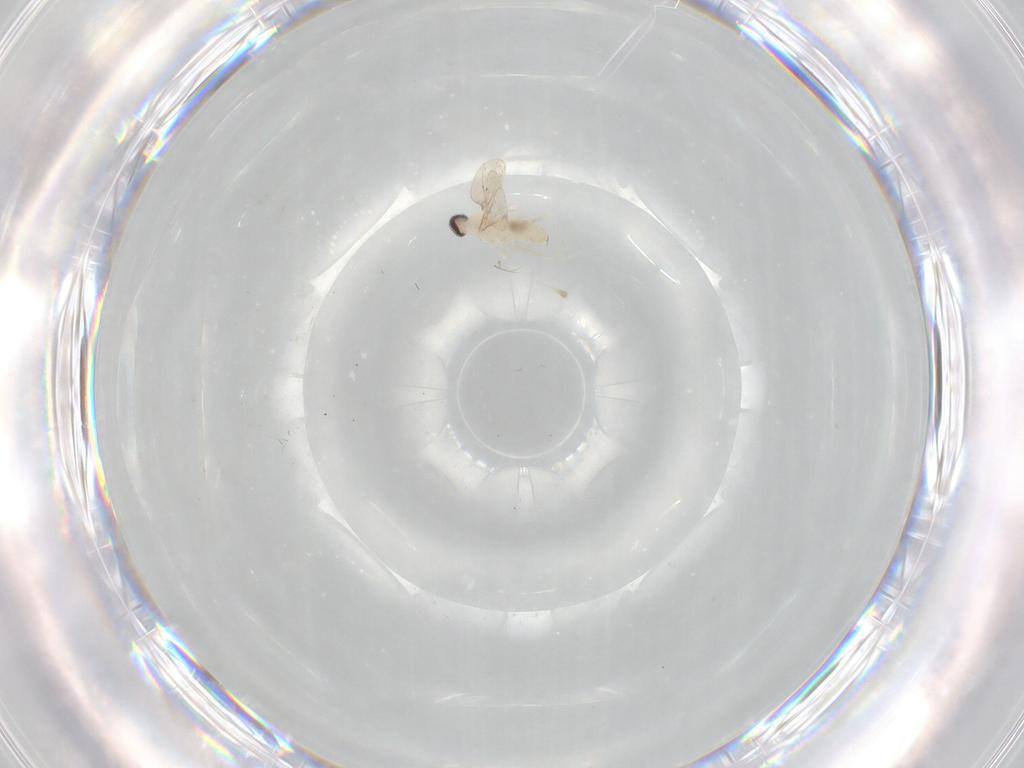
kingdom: Animalia
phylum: Arthropoda
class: Insecta
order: Diptera
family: Cecidomyiidae
